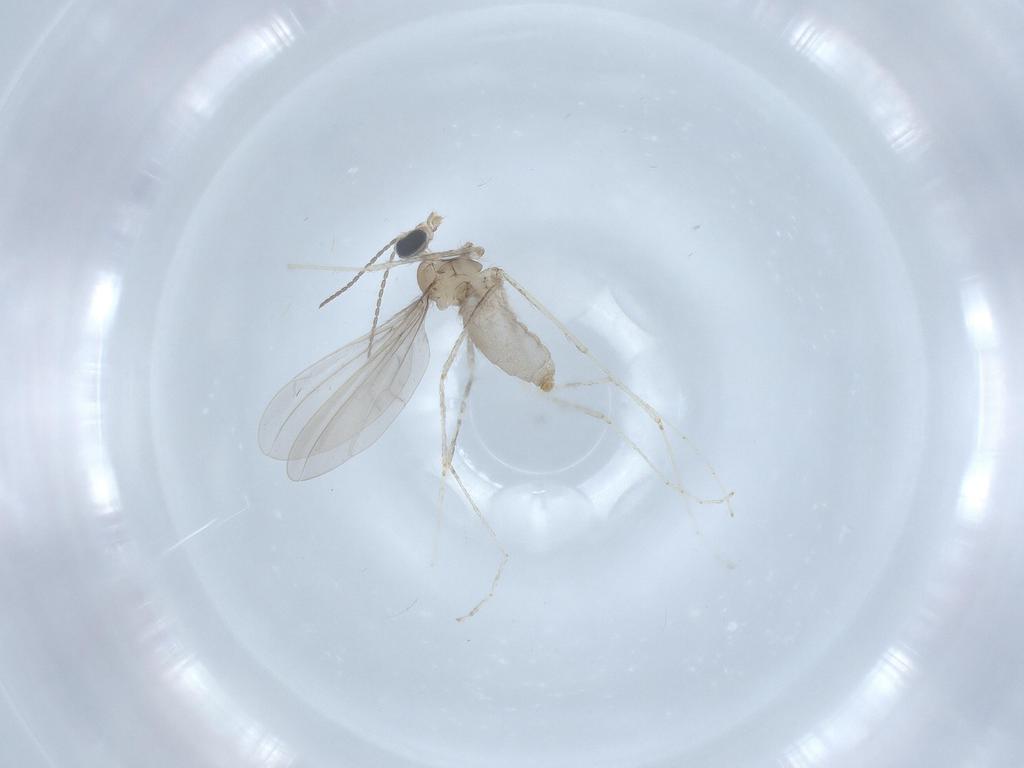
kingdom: Animalia
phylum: Arthropoda
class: Insecta
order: Diptera
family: Cecidomyiidae
